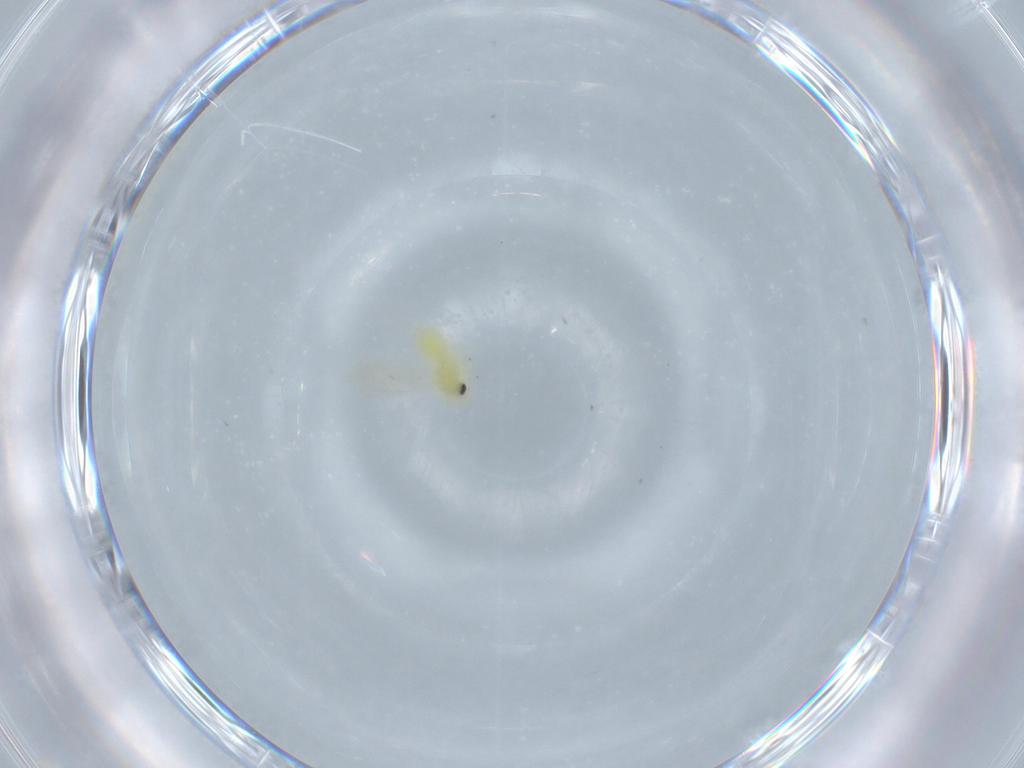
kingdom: Animalia
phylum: Arthropoda
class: Insecta
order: Hemiptera
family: Aleyrodidae
